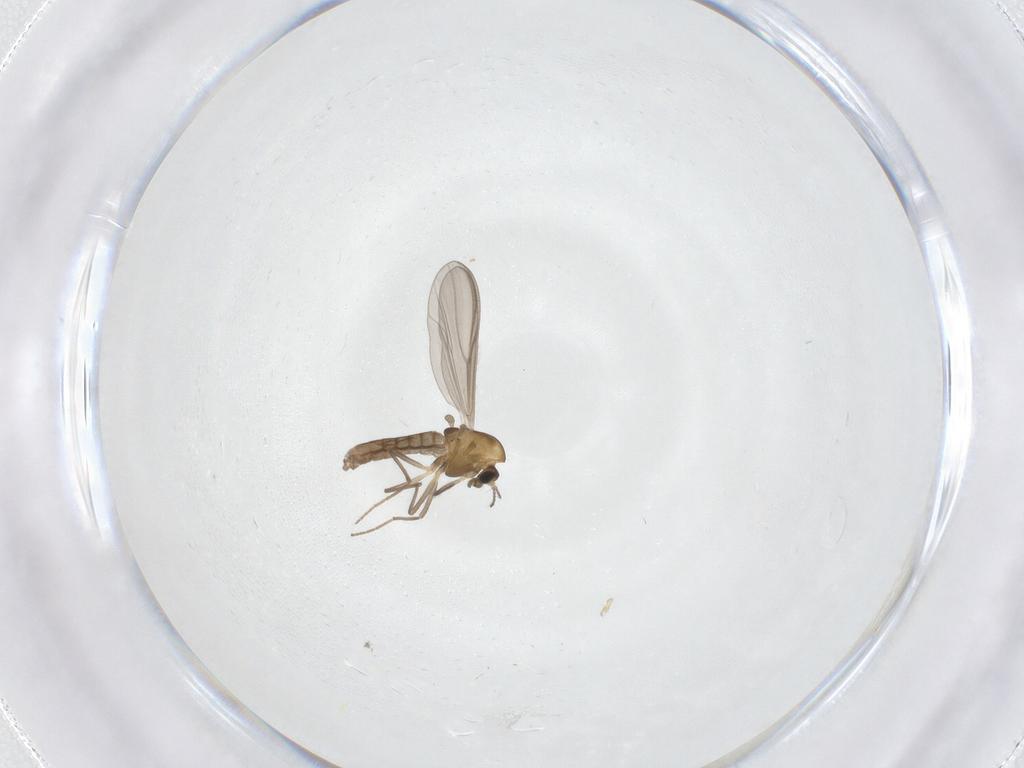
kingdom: Animalia
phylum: Arthropoda
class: Insecta
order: Diptera
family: Chironomidae
